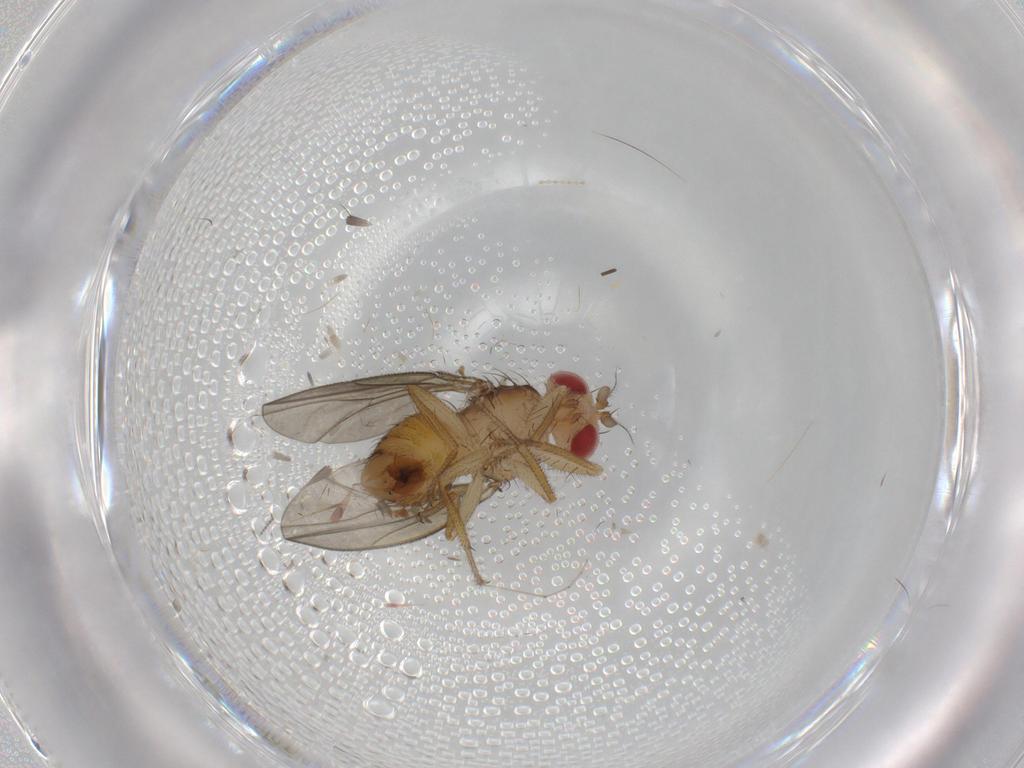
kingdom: Animalia
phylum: Arthropoda
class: Insecta
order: Diptera
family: Drosophilidae
